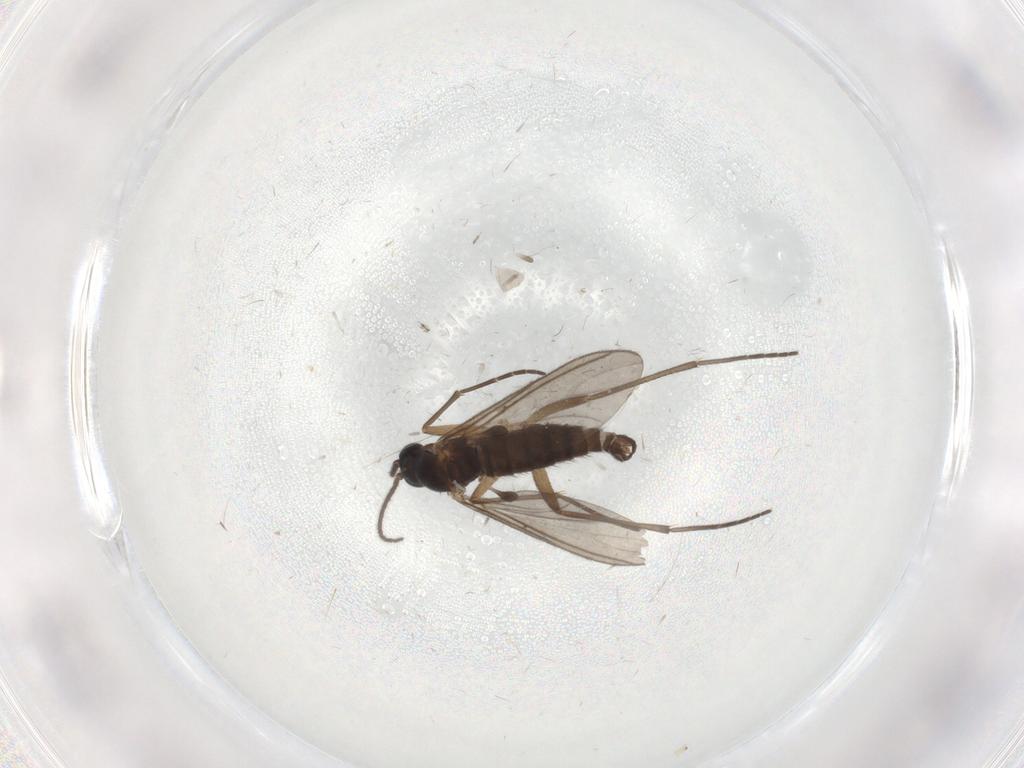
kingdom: Animalia
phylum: Arthropoda
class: Insecta
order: Diptera
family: Sciaridae
